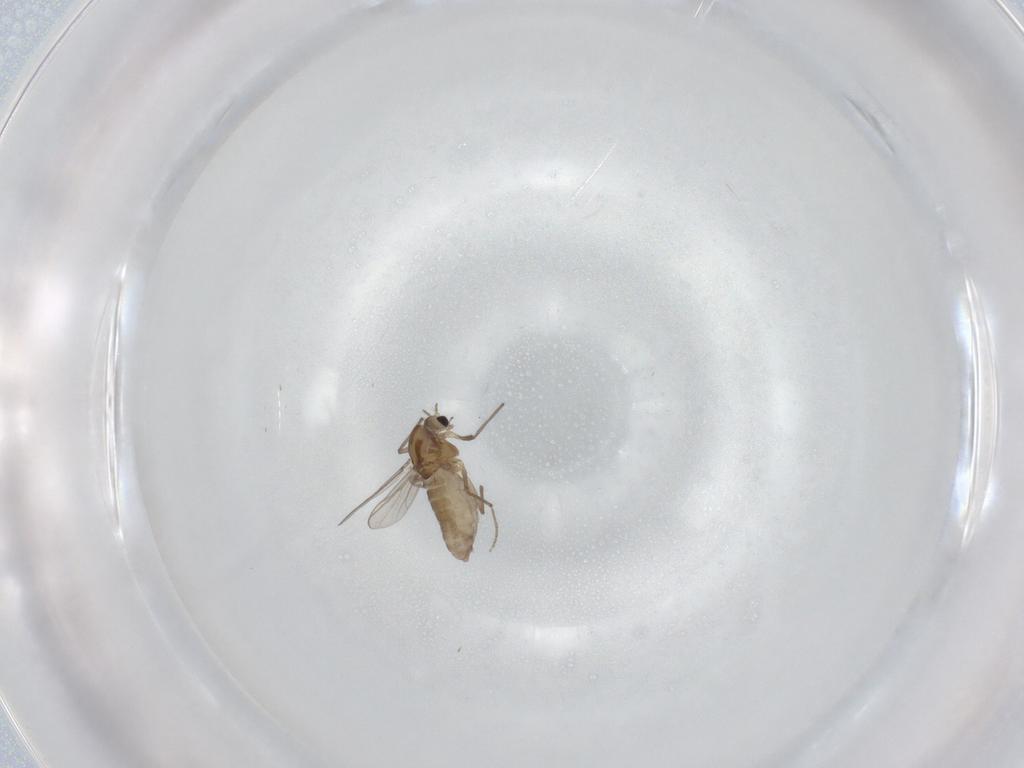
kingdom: Animalia
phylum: Arthropoda
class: Insecta
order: Diptera
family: Chironomidae
